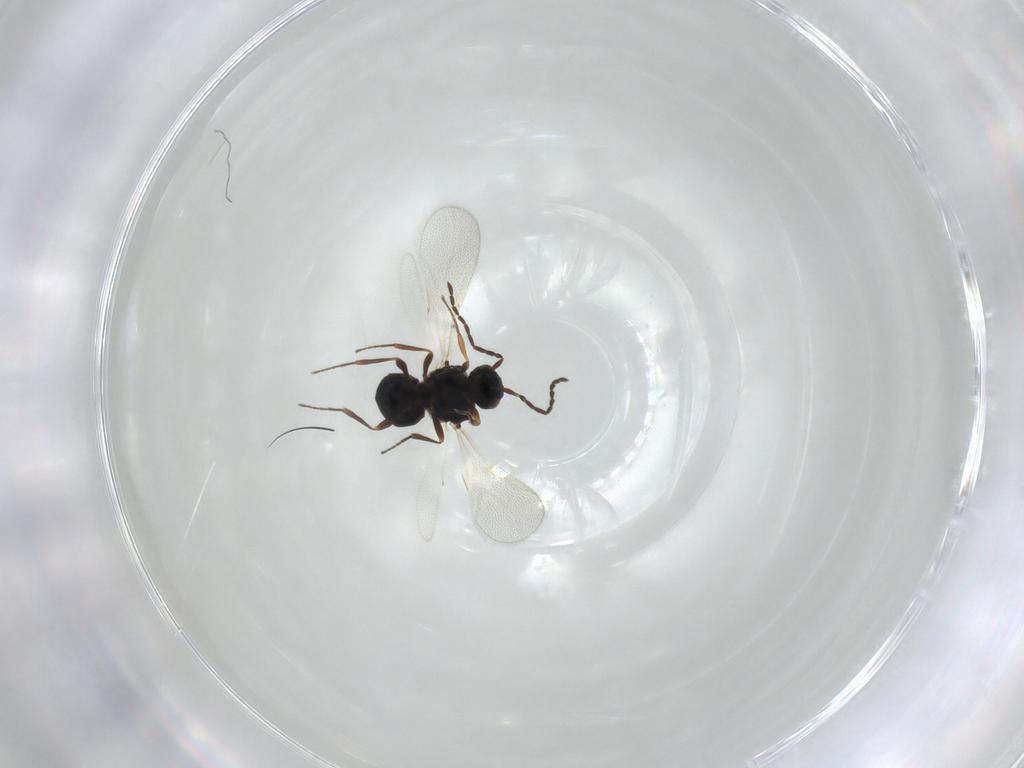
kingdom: Animalia
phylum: Arthropoda
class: Insecta
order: Hymenoptera
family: Platygastridae
